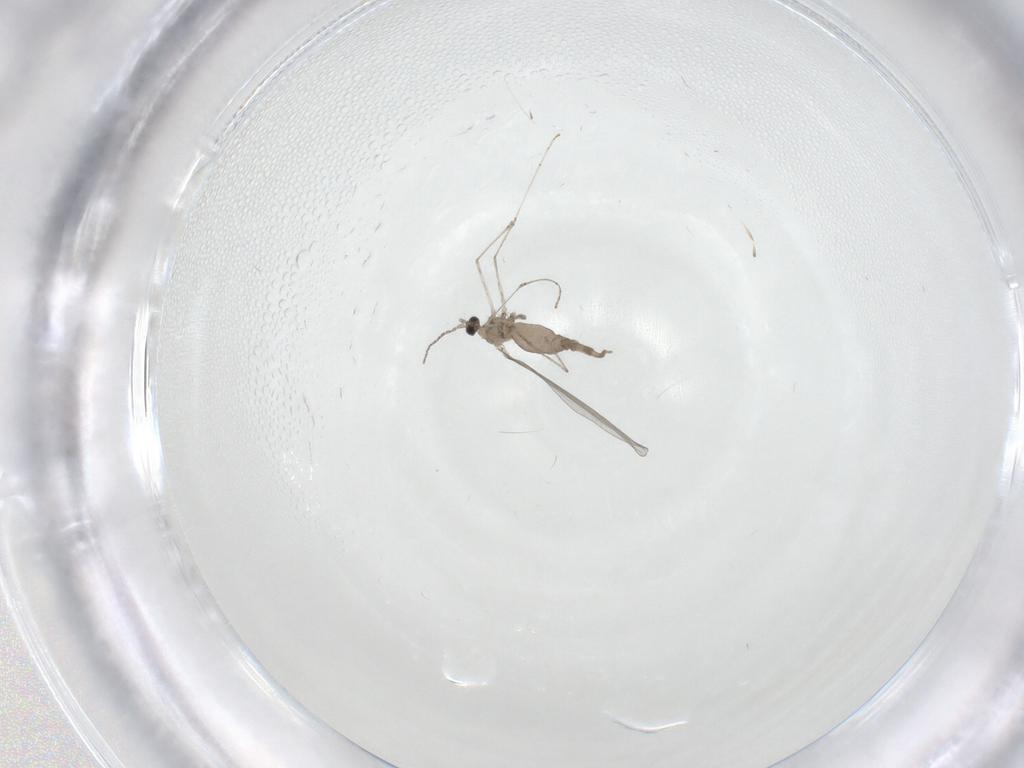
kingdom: Animalia
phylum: Arthropoda
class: Insecta
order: Diptera
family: Cecidomyiidae
